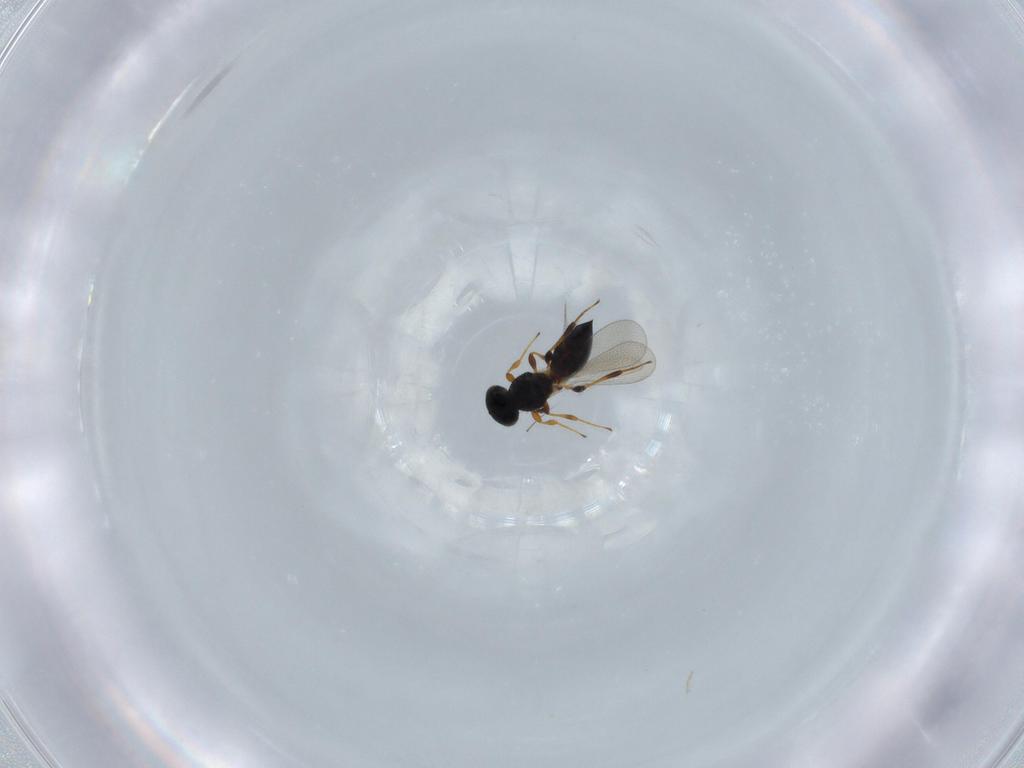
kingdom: Animalia
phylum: Arthropoda
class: Insecta
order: Hymenoptera
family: Platygastridae
